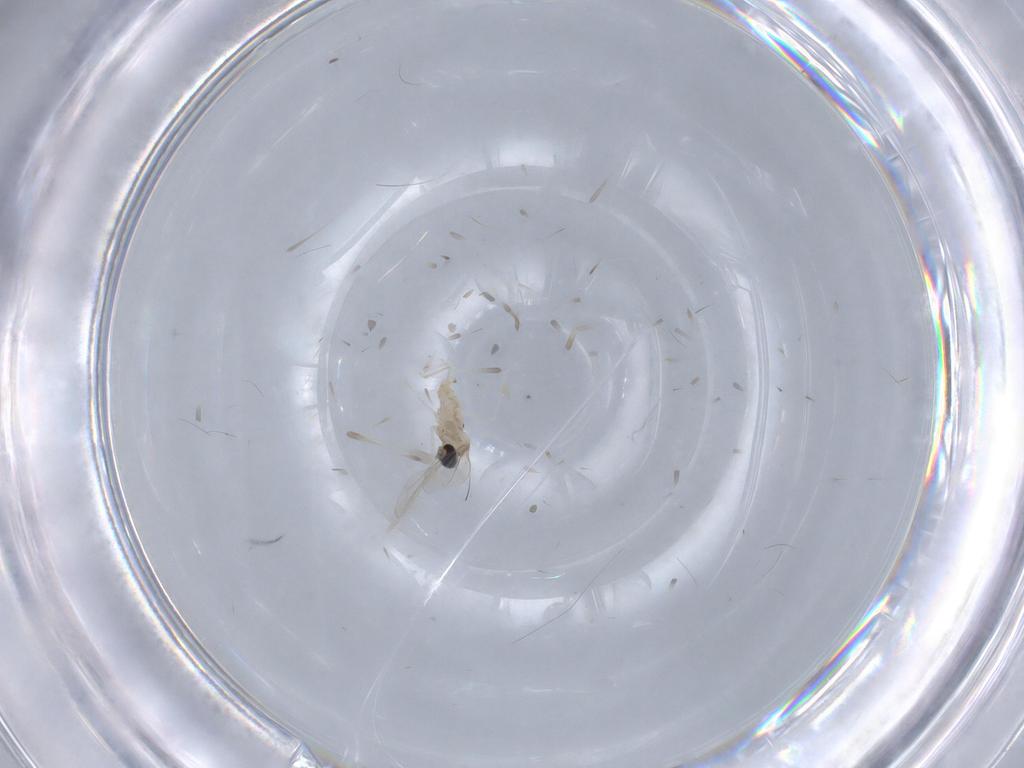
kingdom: Animalia
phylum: Arthropoda
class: Insecta
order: Diptera
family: Cecidomyiidae
